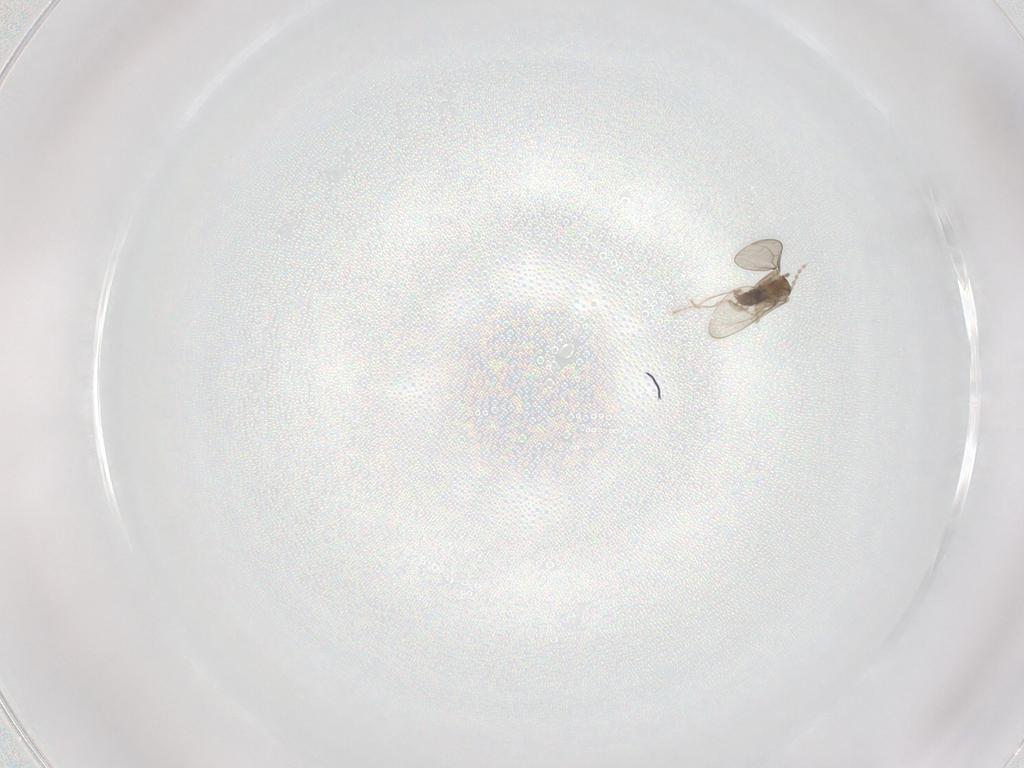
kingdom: Animalia
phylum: Arthropoda
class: Insecta
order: Diptera
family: Cecidomyiidae
